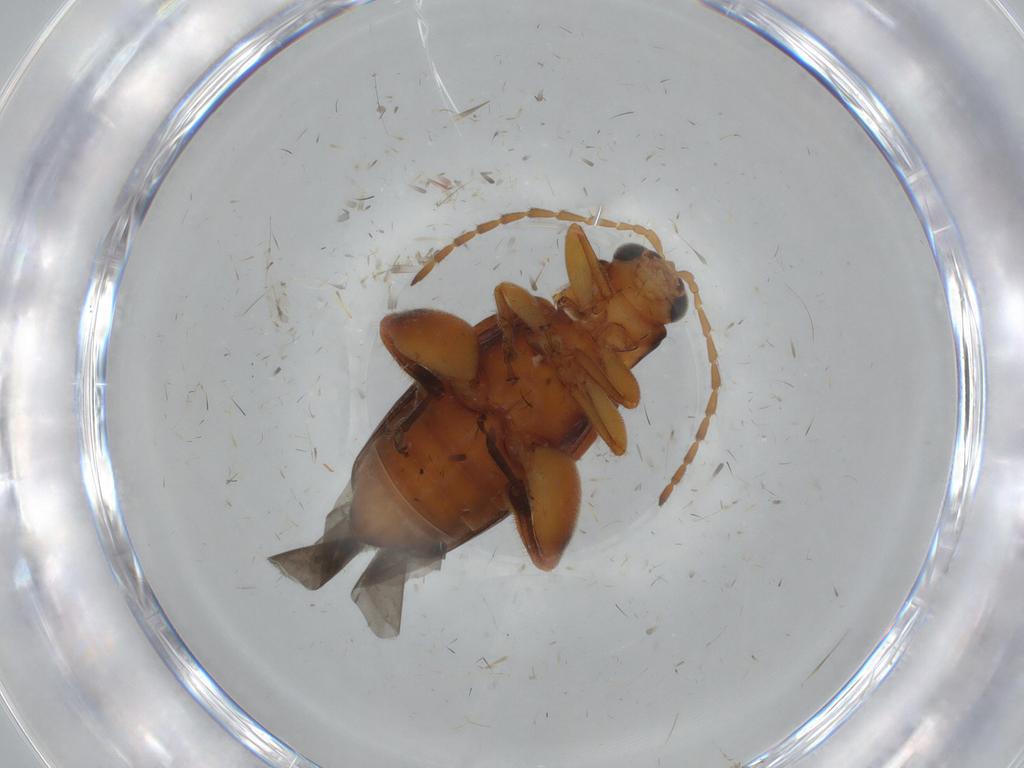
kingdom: Animalia
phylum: Arthropoda
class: Insecta
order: Coleoptera
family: Chrysomelidae
